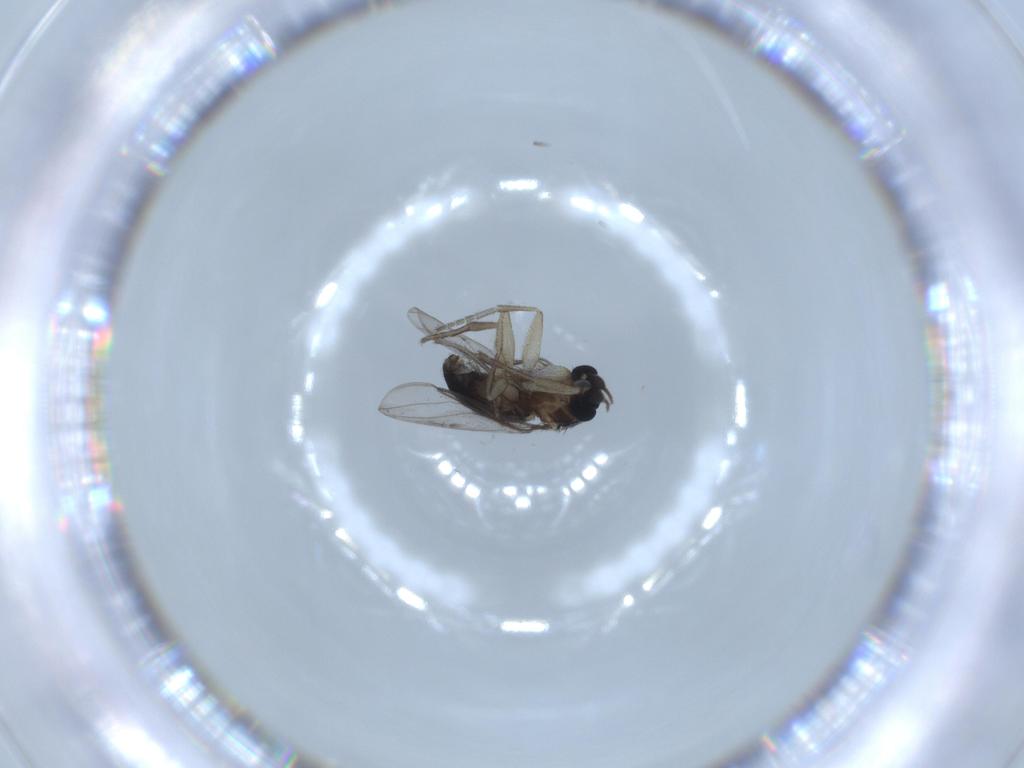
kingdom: Animalia
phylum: Arthropoda
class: Insecta
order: Diptera
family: Phoridae
